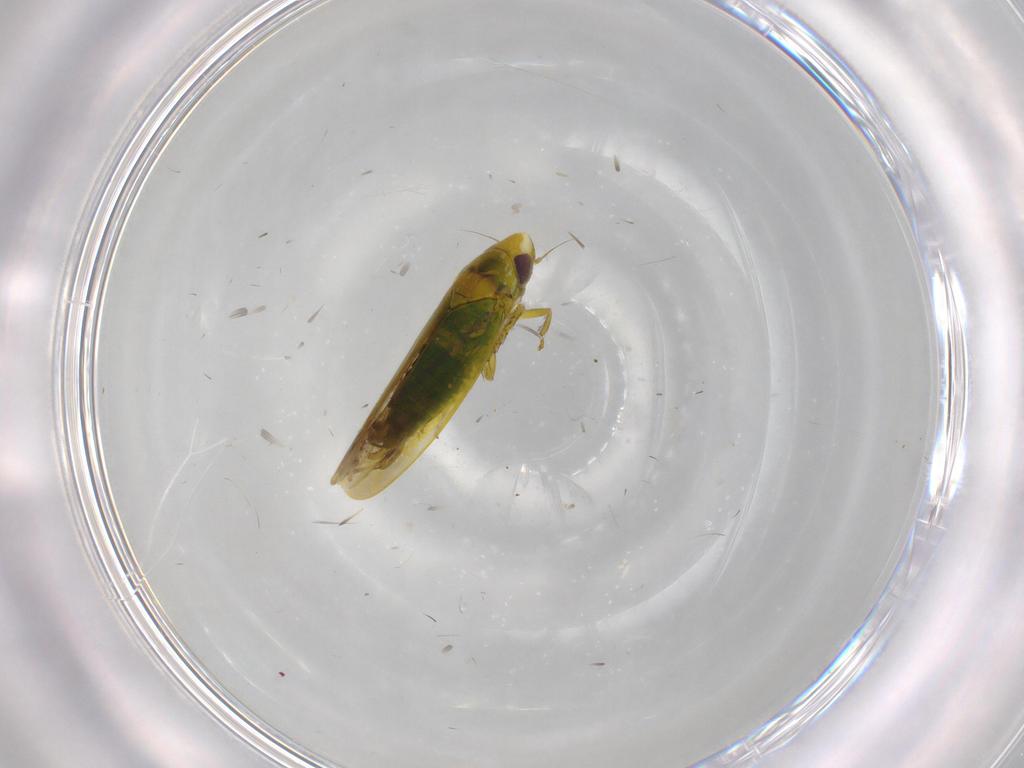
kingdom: Animalia
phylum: Arthropoda
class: Insecta
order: Hemiptera
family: Cicadellidae
